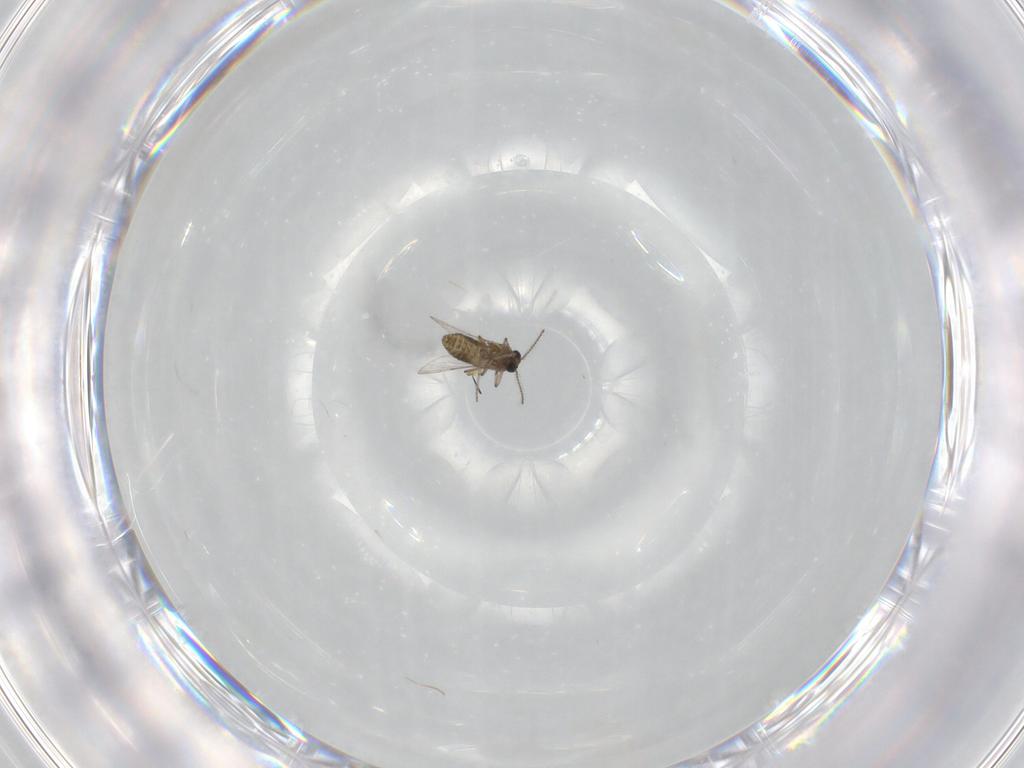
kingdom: Animalia
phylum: Arthropoda
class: Insecta
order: Diptera
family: Ceratopogonidae
